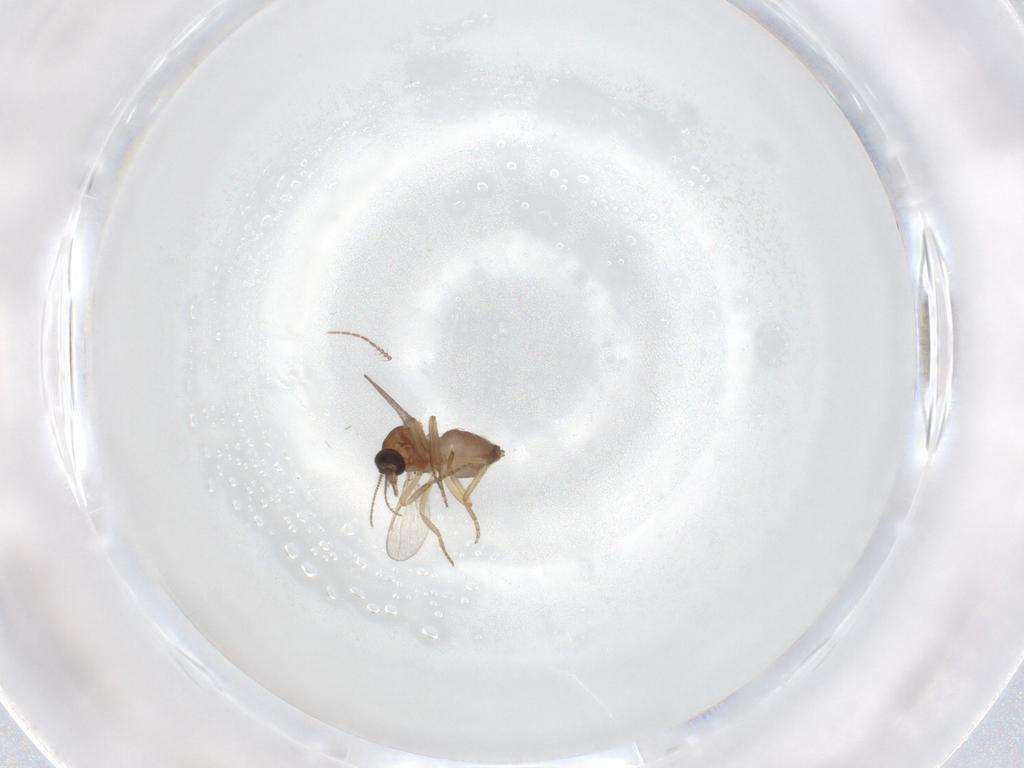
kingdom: Animalia
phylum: Arthropoda
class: Insecta
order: Diptera
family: Ceratopogonidae
